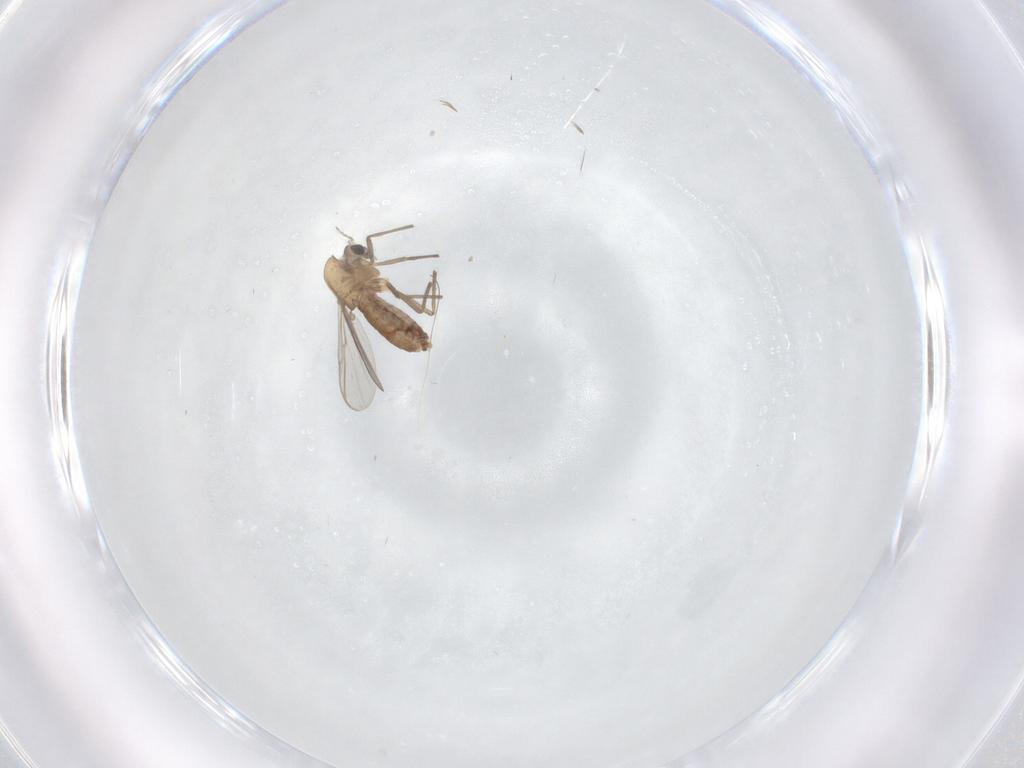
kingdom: Animalia
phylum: Arthropoda
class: Insecta
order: Diptera
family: Chironomidae
